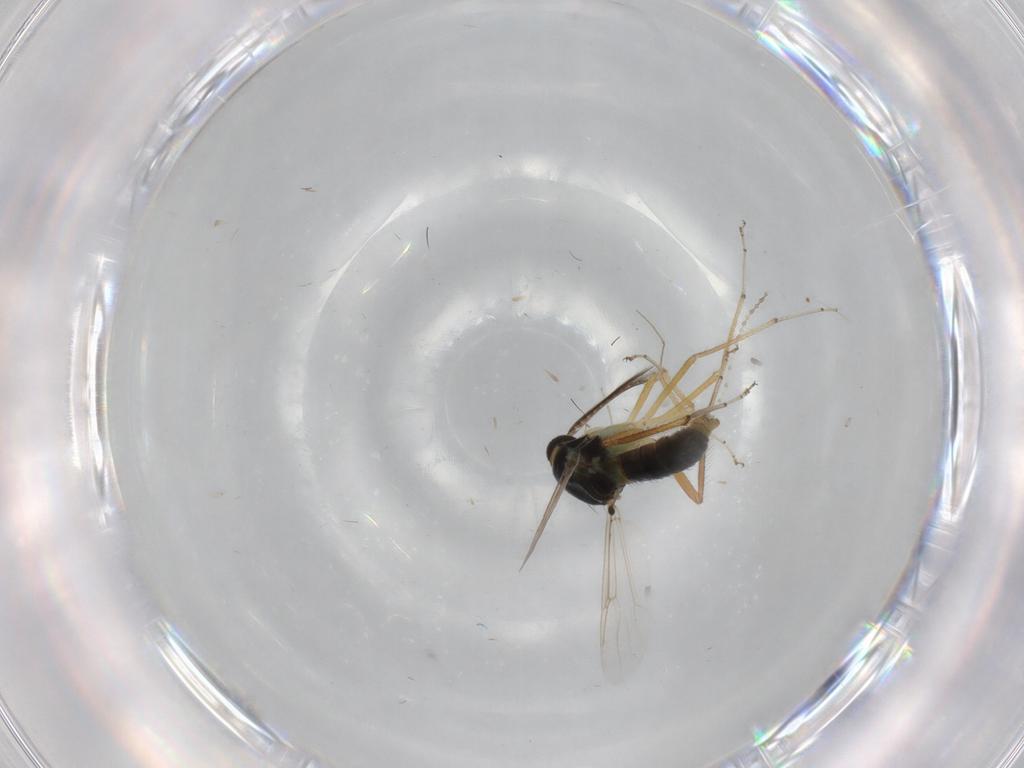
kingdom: Animalia
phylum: Arthropoda
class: Insecta
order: Diptera
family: Ceratopogonidae
